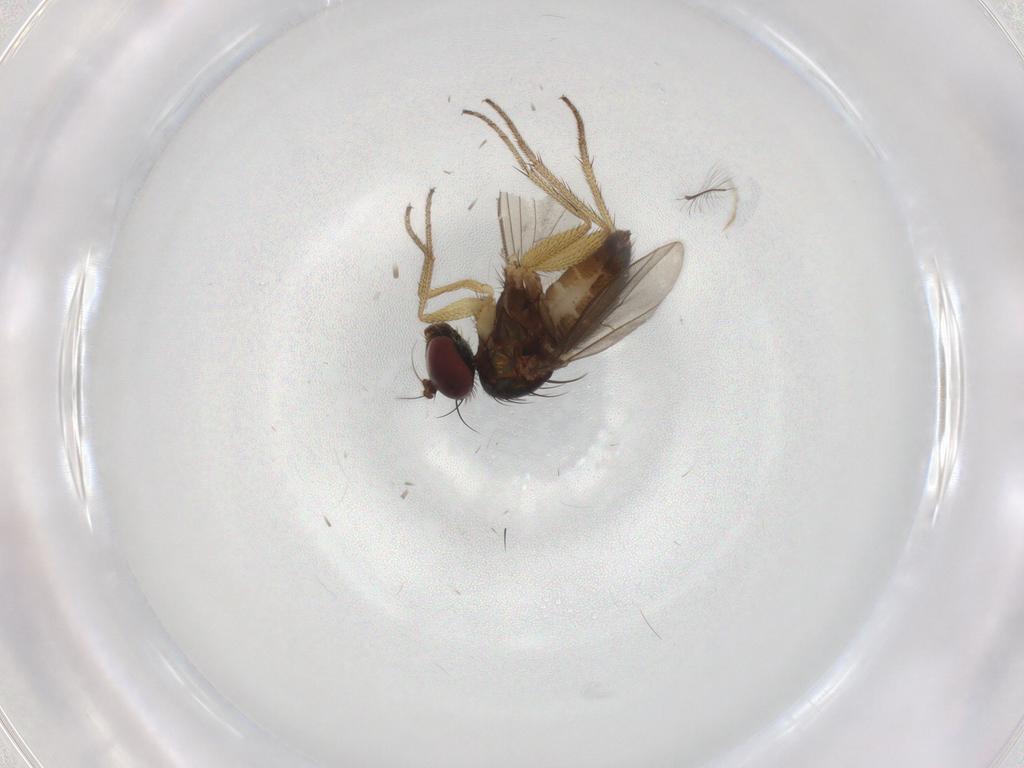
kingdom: Animalia
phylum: Arthropoda
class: Insecta
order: Diptera
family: Chironomidae
